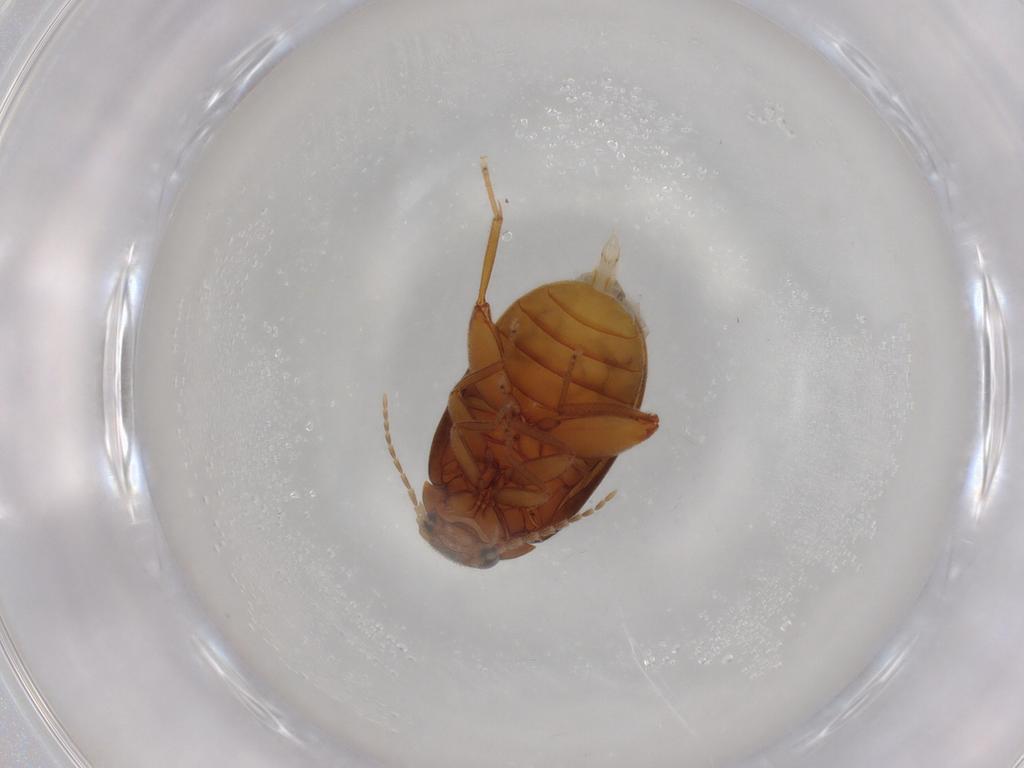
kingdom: Animalia
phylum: Arthropoda
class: Insecta
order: Coleoptera
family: Scirtidae
